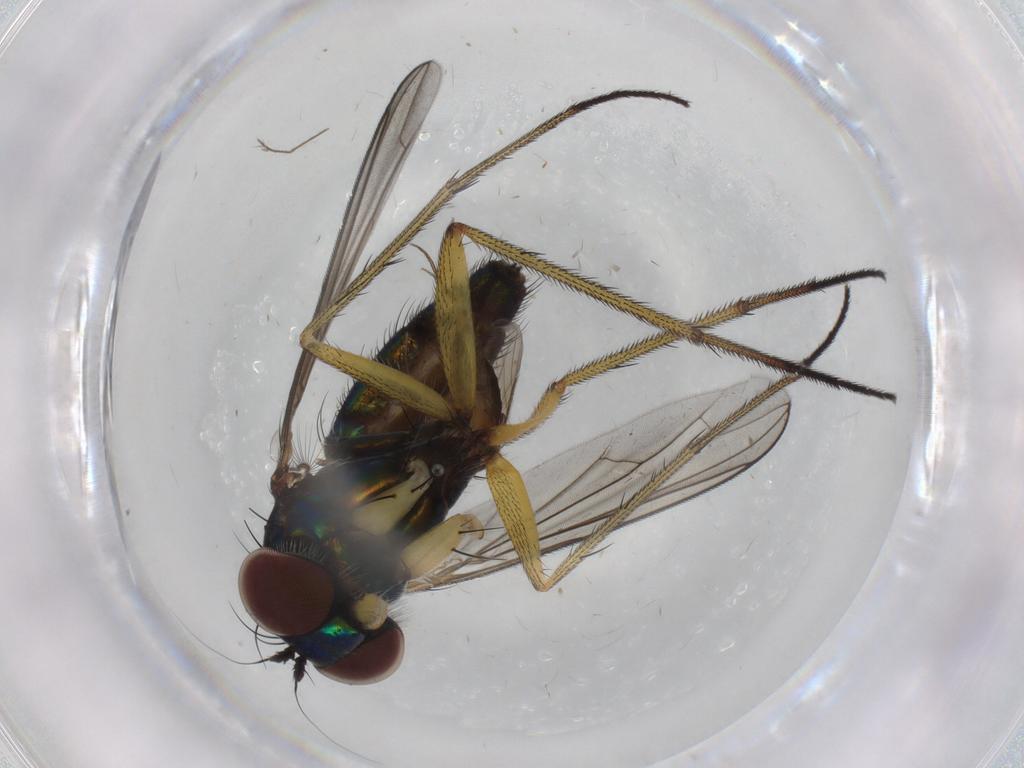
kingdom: Animalia
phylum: Arthropoda
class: Insecta
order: Diptera
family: Dolichopodidae
